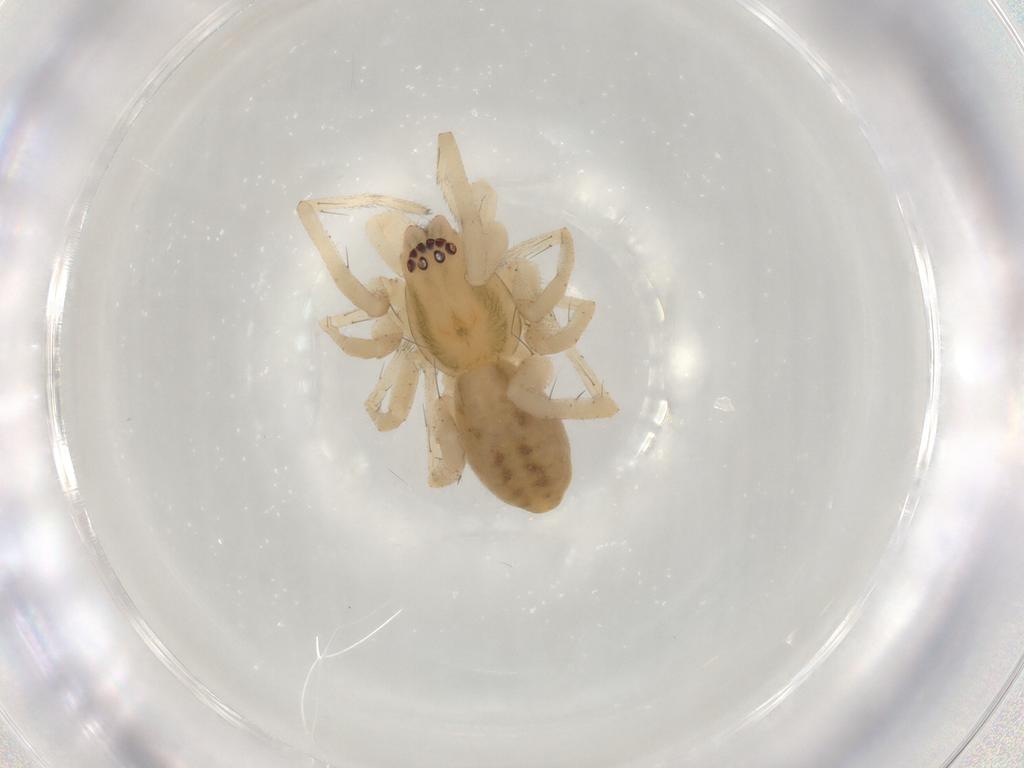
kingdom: Animalia
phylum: Arthropoda
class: Arachnida
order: Araneae
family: Anyphaenidae
